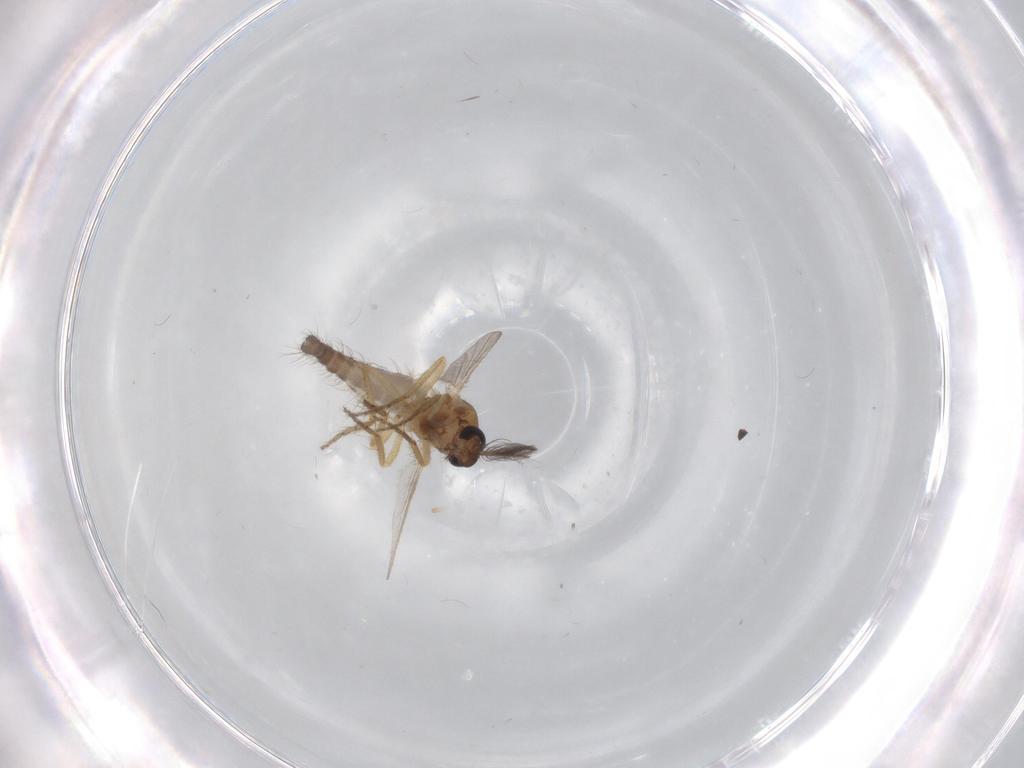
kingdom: Animalia
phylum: Arthropoda
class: Insecta
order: Diptera
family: Ceratopogonidae
